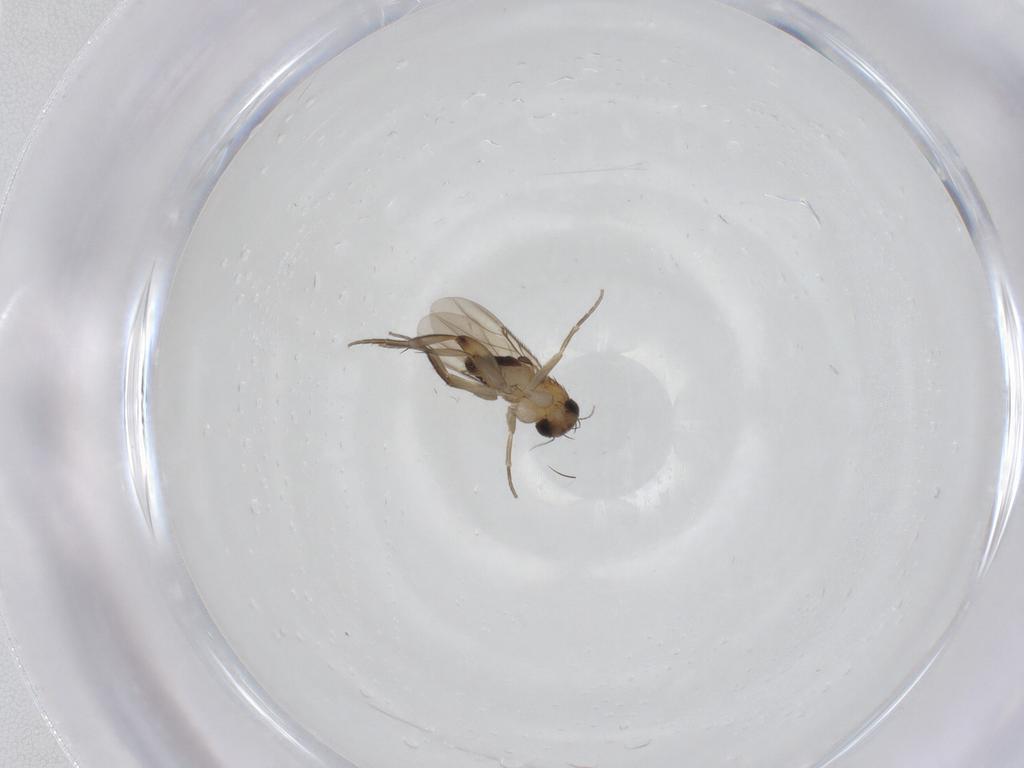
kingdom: Animalia
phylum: Arthropoda
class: Insecta
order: Diptera
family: Phoridae
